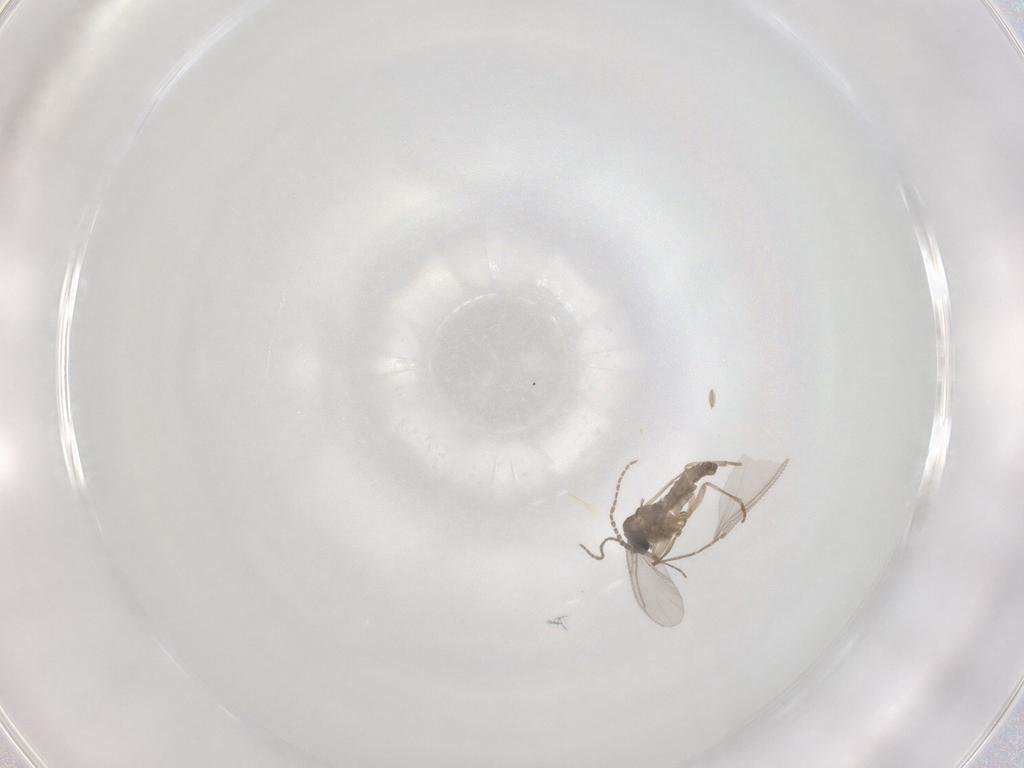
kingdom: Animalia
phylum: Arthropoda
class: Insecta
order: Diptera
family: Sciaridae
